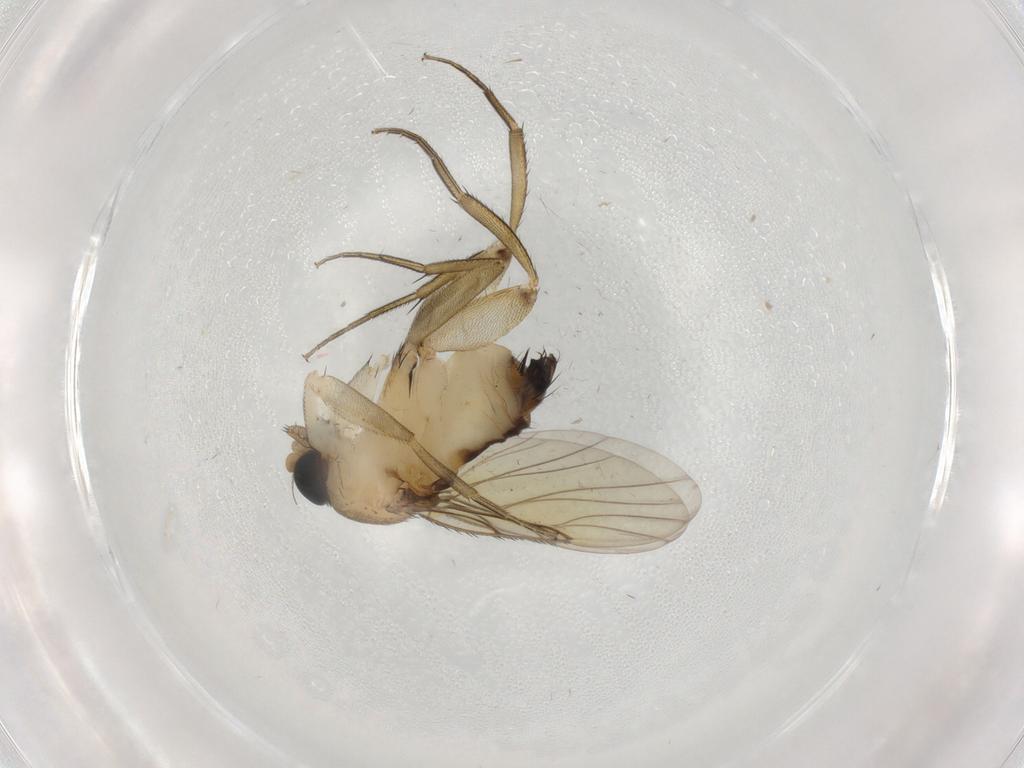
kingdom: Animalia
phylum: Arthropoda
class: Insecta
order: Diptera
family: Phoridae
